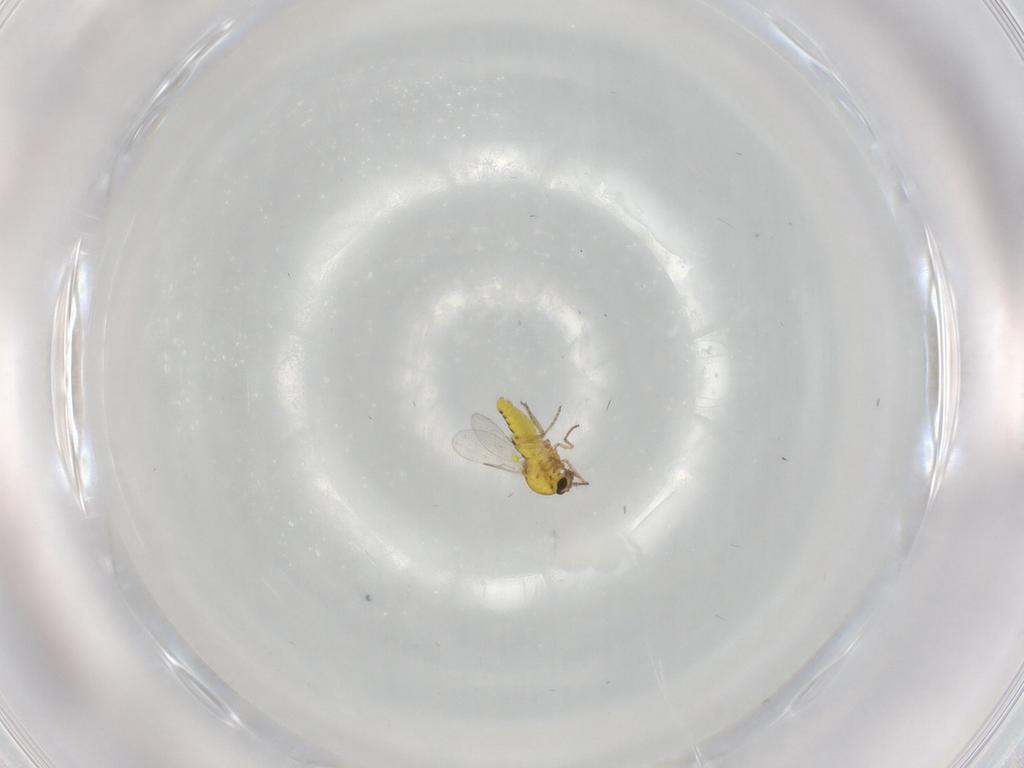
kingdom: Animalia
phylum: Arthropoda
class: Insecta
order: Diptera
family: Ceratopogonidae
